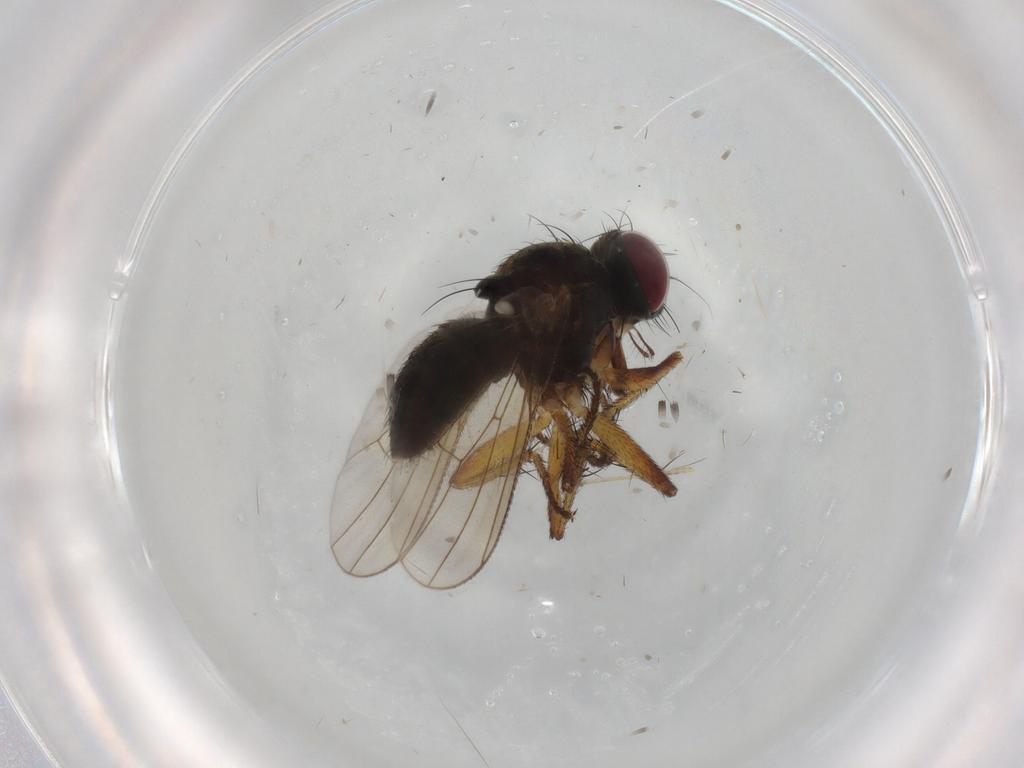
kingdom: Animalia
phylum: Arthropoda
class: Insecta
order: Diptera
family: Muscidae
